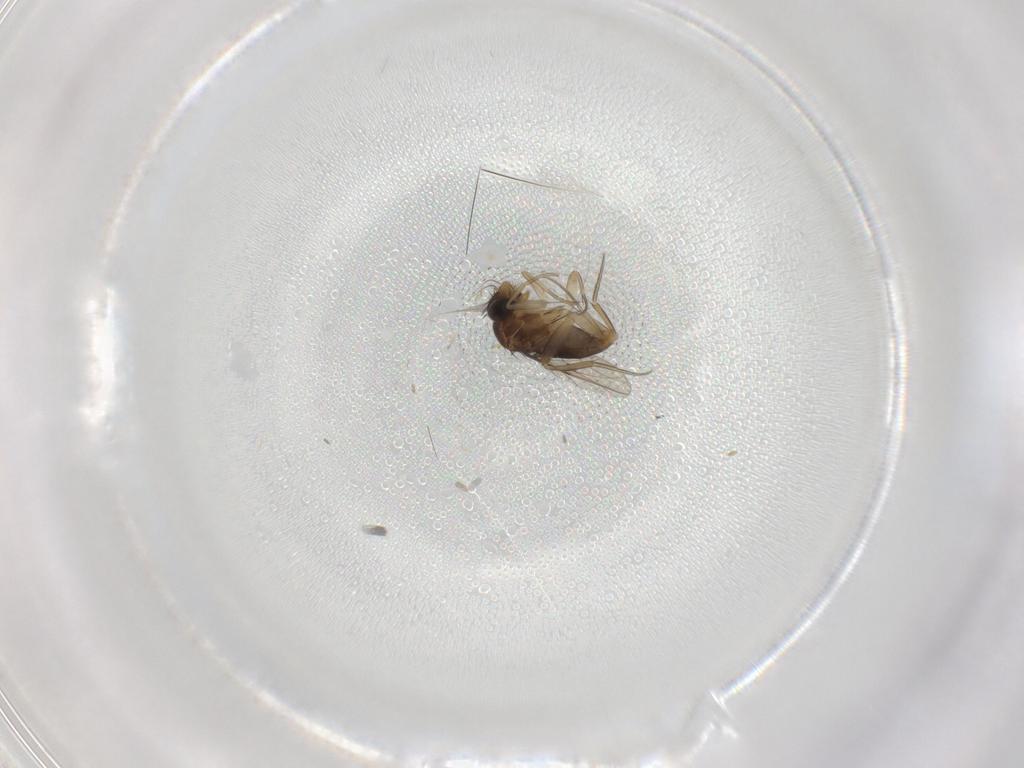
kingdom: Animalia
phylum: Arthropoda
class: Insecta
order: Diptera
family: Phoridae
